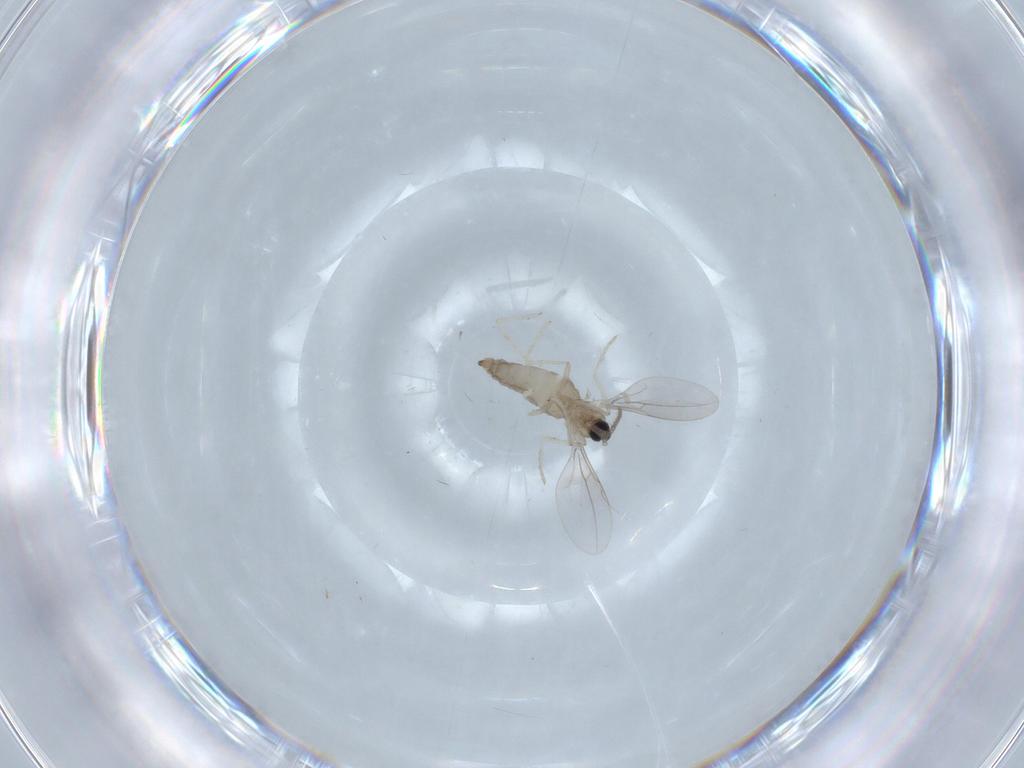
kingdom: Animalia
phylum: Arthropoda
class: Insecta
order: Diptera
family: Cecidomyiidae
